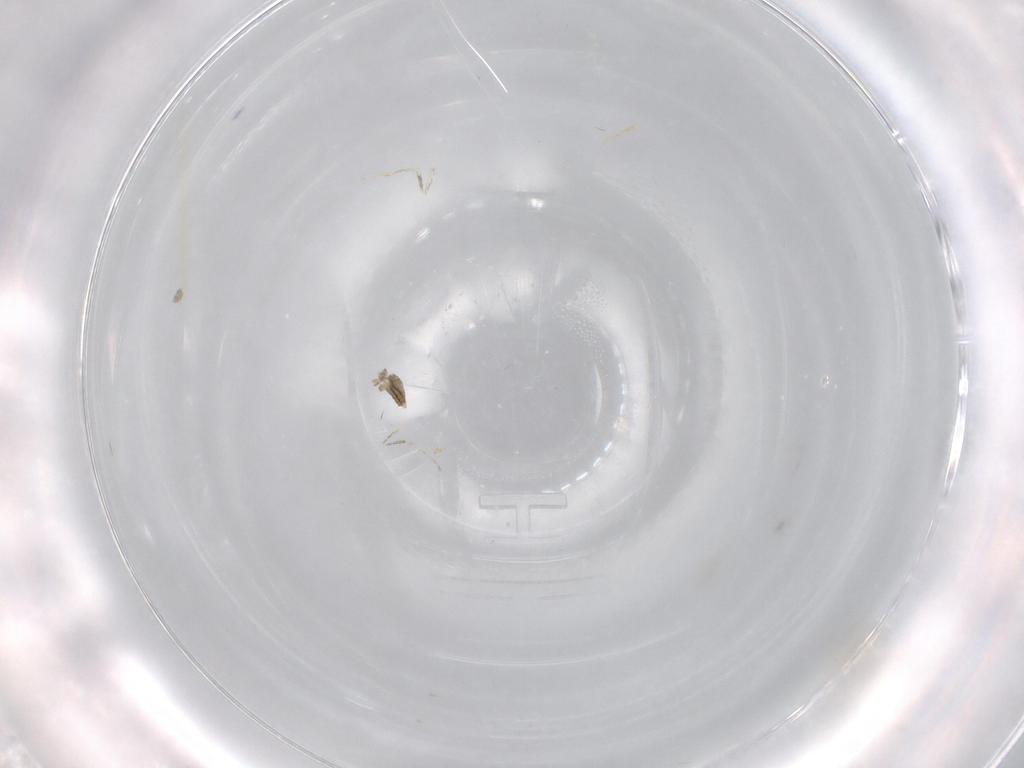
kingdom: Animalia
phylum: Arthropoda
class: Insecta
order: Diptera
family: Cecidomyiidae
